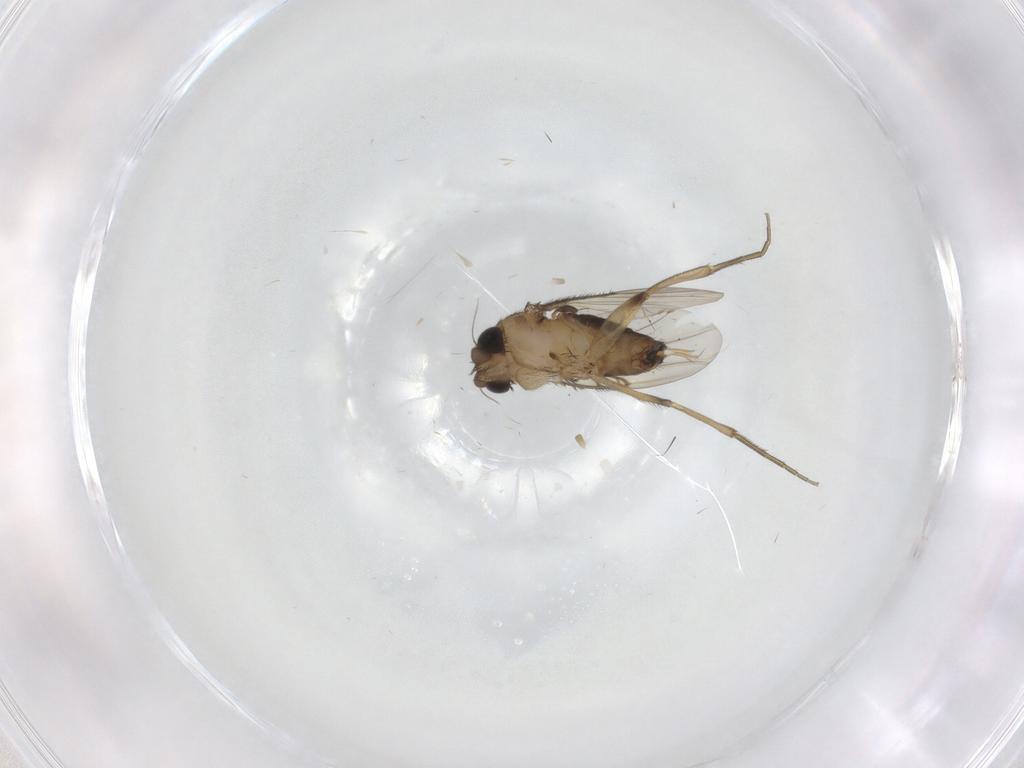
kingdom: Animalia
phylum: Arthropoda
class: Insecta
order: Diptera
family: Phoridae
